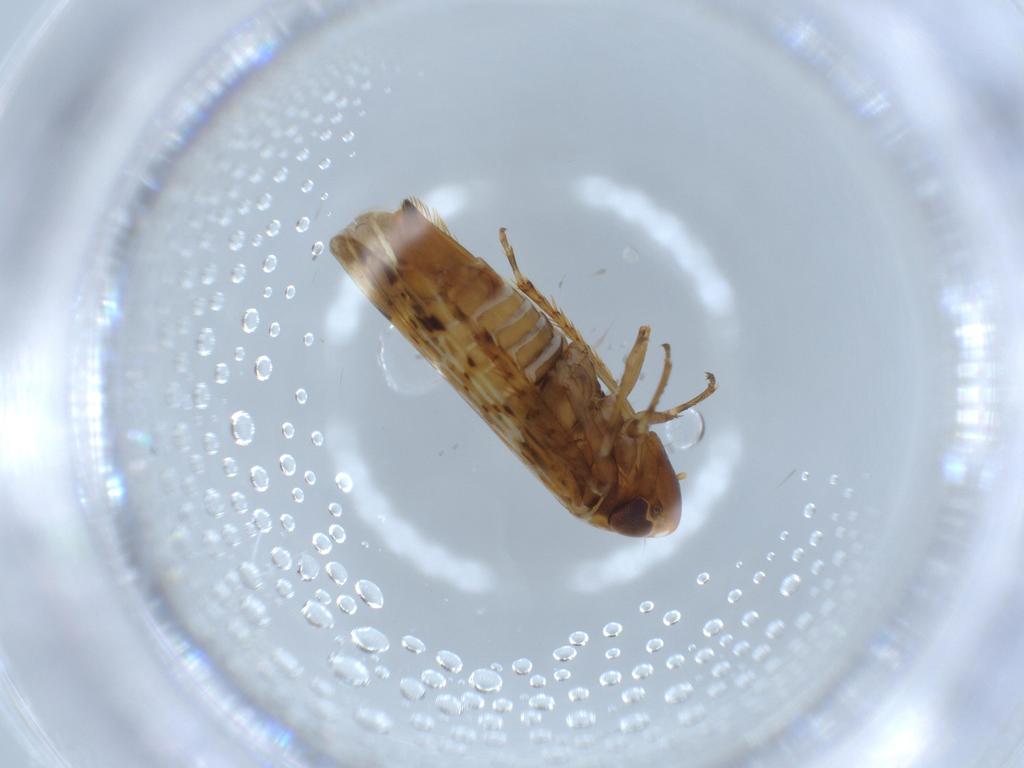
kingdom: Animalia
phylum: Arthropoda
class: Insecta
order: Hemiptera
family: Cicadellidae
